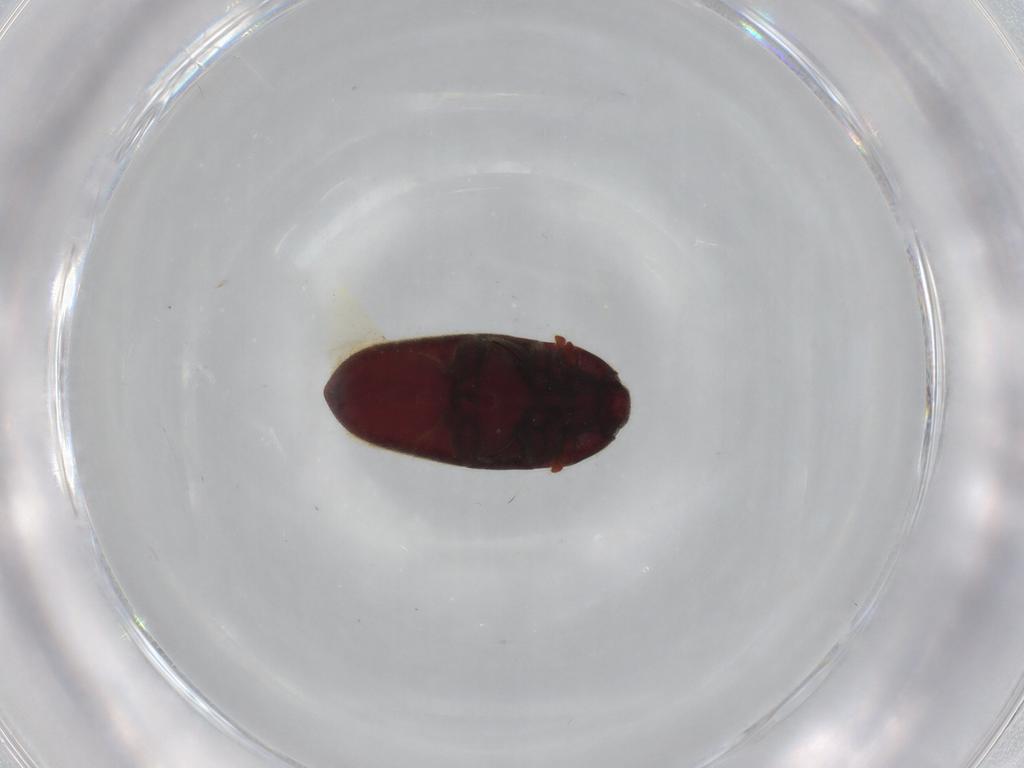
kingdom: Animalia
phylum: Arthropoda
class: Insecta
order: Coleoptera
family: Throscidae
